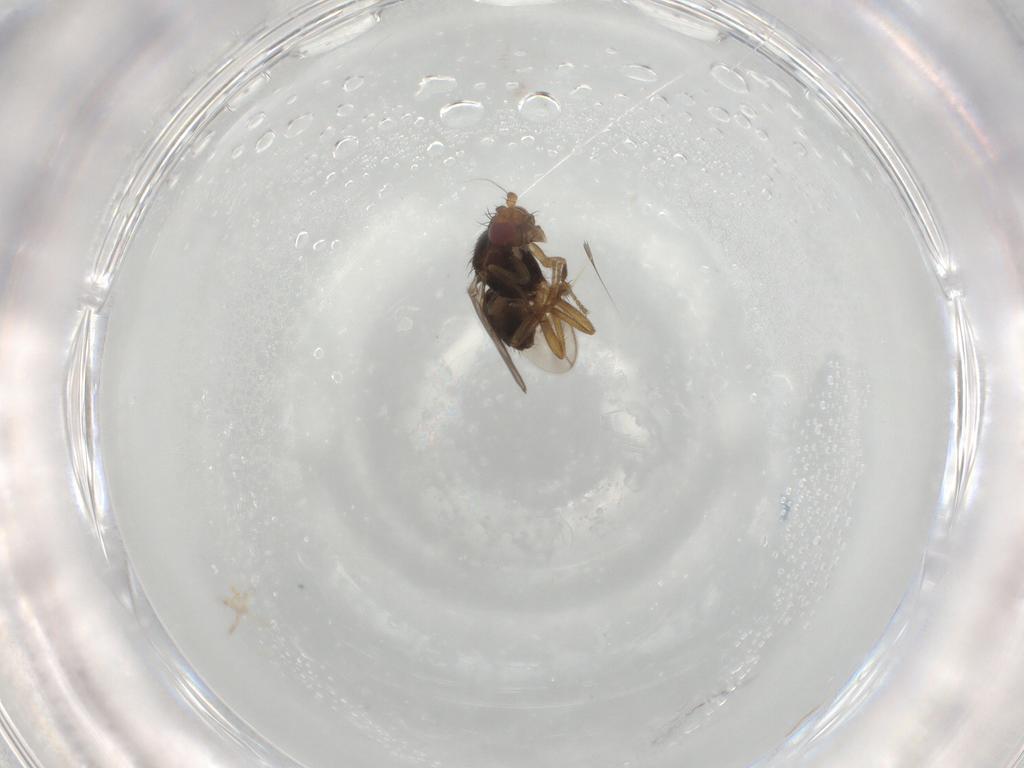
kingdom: Animalia
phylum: Arthropoda
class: Insecta
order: Diptera
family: Sphaeroceridae
